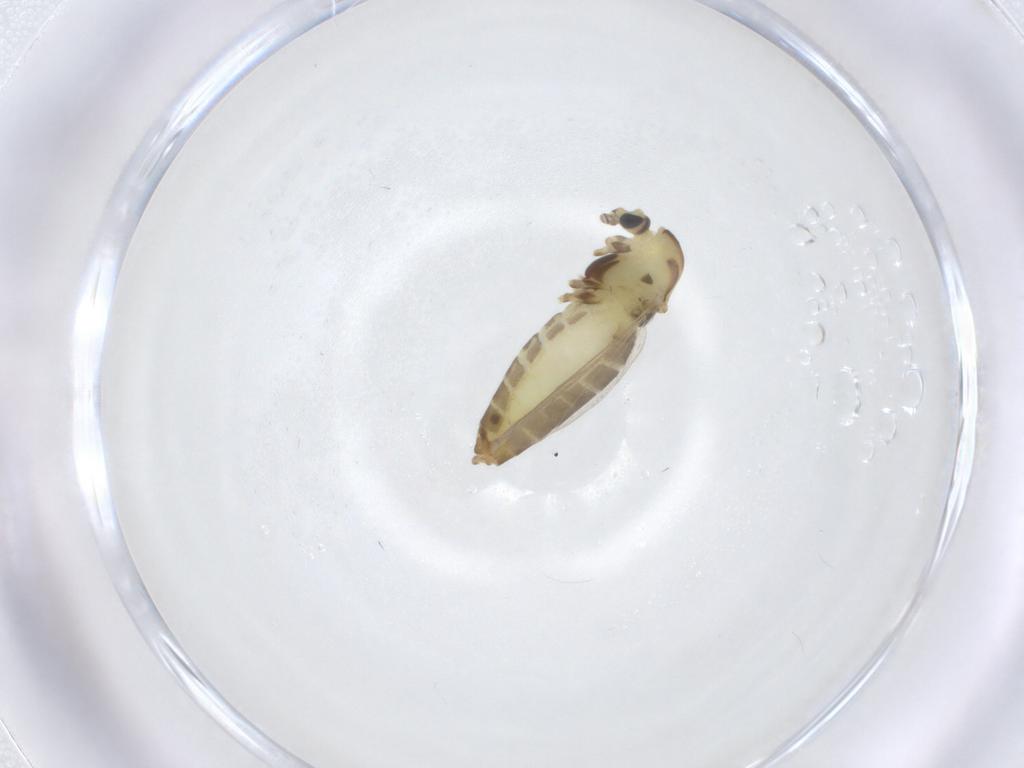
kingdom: Animalia
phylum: Arthropoda
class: Insecta
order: Diptera
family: Chironomidae
